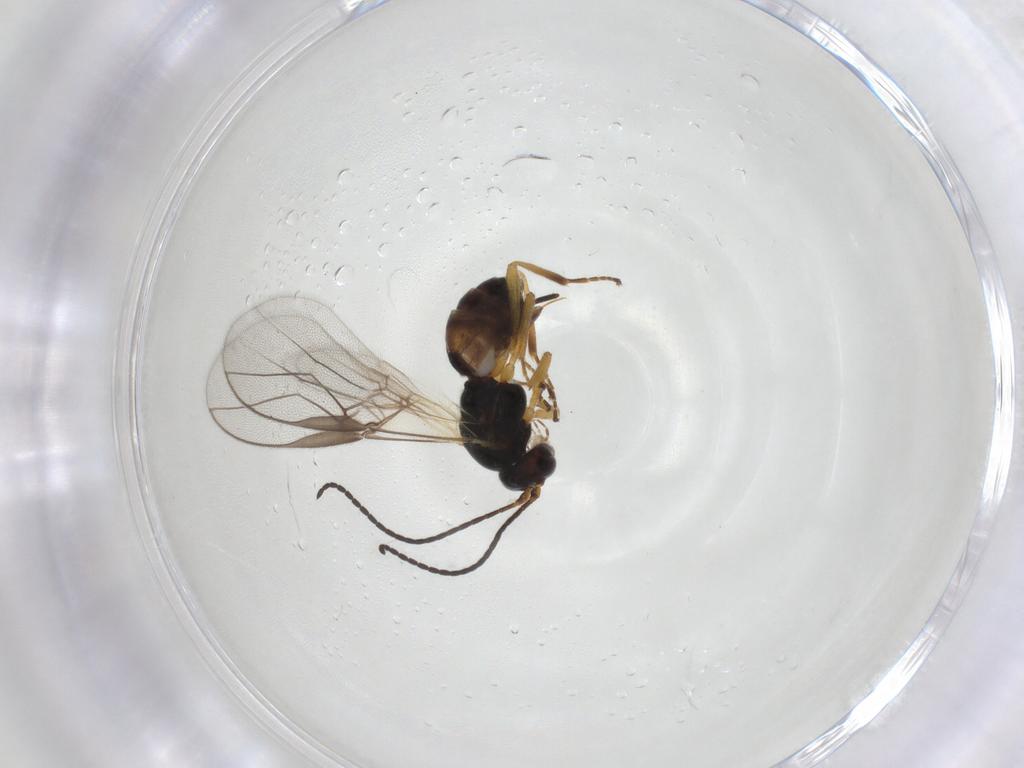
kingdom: Animalia
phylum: Arthropoda
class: Insecta
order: Hymenoptera
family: Braconidae
